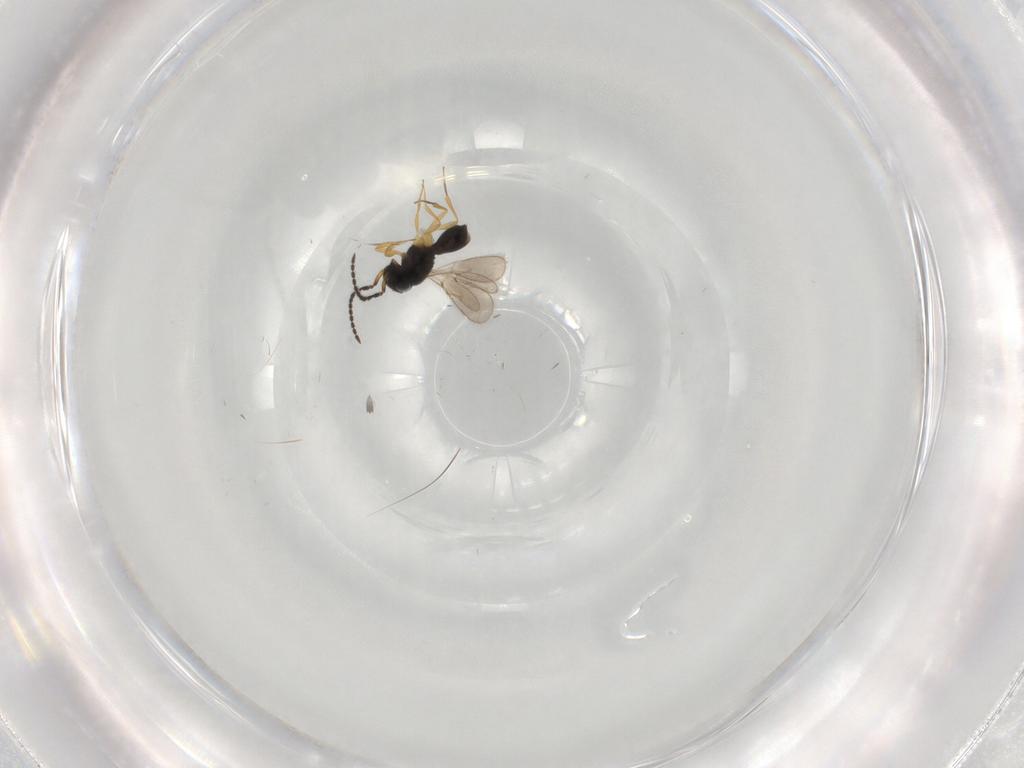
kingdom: Animalia
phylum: Arthropoda
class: Insecta
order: Hymenoptera
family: Scelionidae
